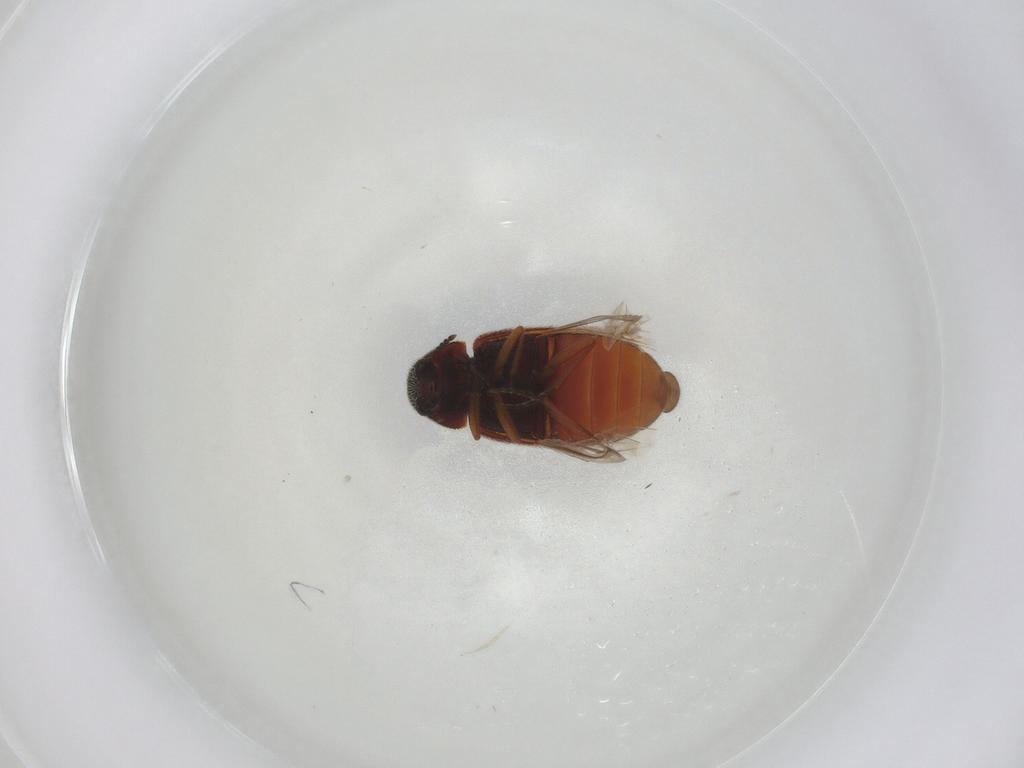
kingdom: Animalia
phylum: Arthropoda
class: Insecta
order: Coleoptera
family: Rhadalidae
